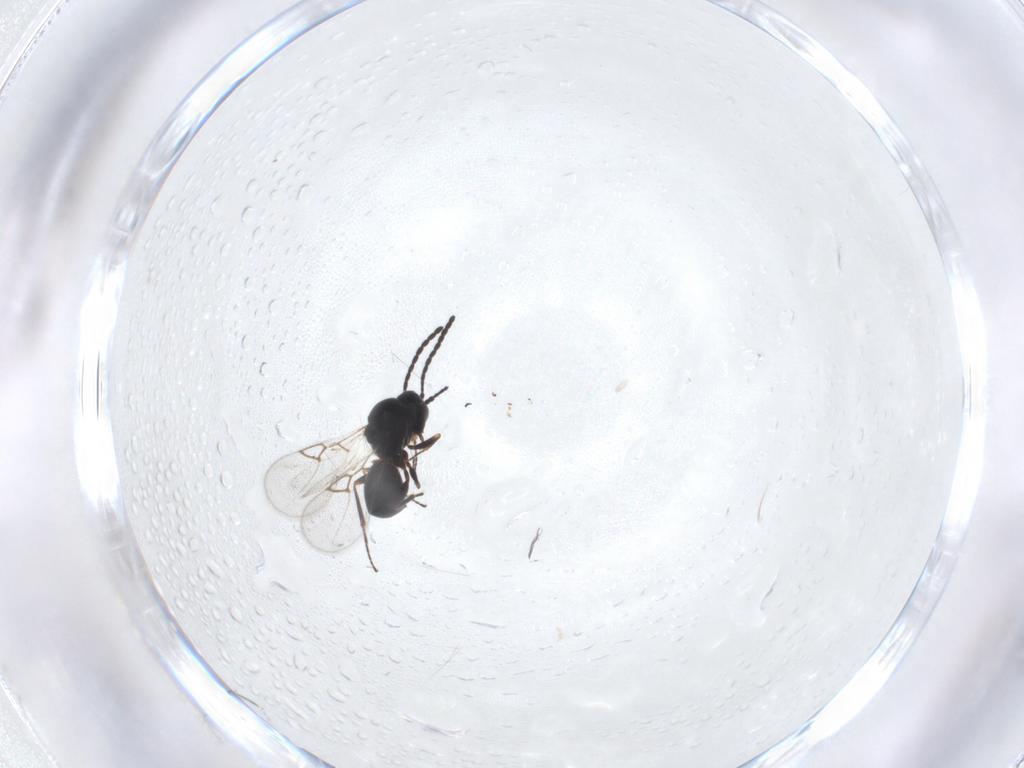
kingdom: Animalia
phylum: Arthropoda
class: Insecta
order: Hymenoptera
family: Figitidae
